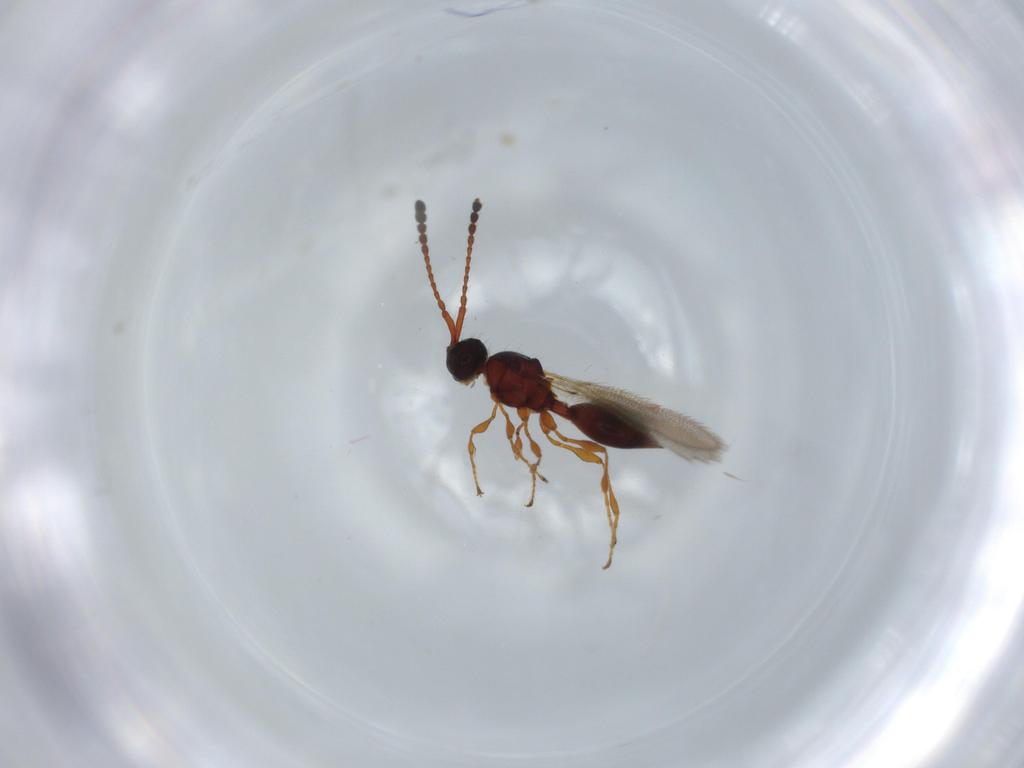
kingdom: Animalia
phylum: Arthropoda
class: Insecta
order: Hymenoptera
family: Diapriidae
